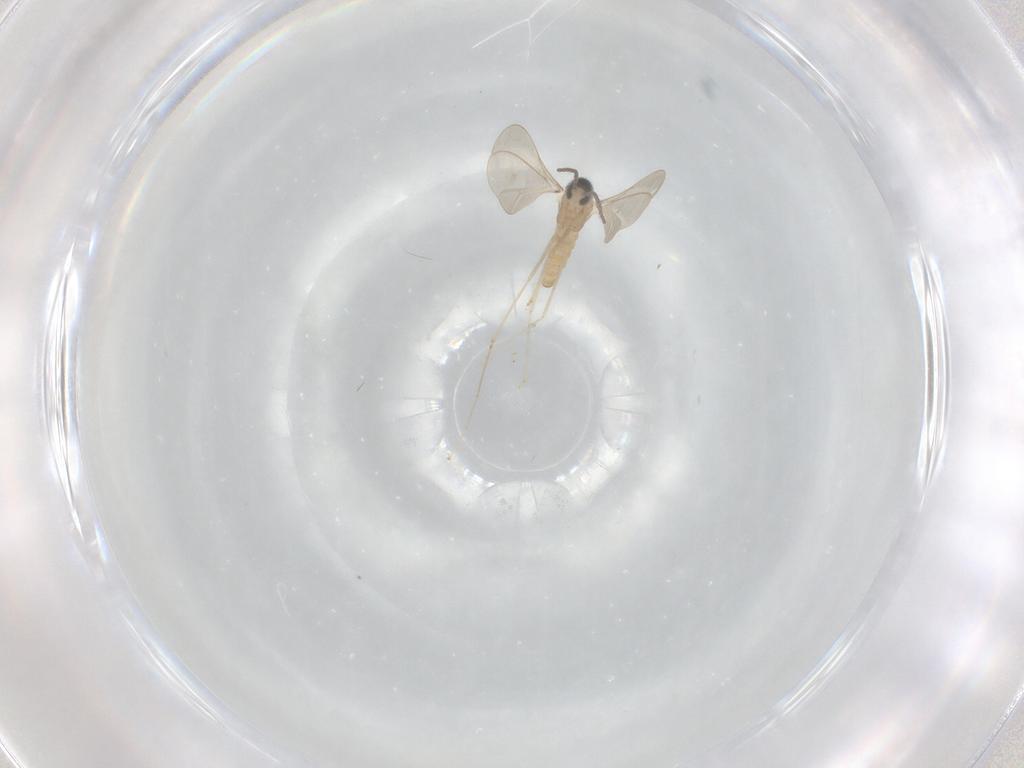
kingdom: Animalia
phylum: Arthropoda
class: Insecta
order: Diptera
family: Cecidomyiidae
